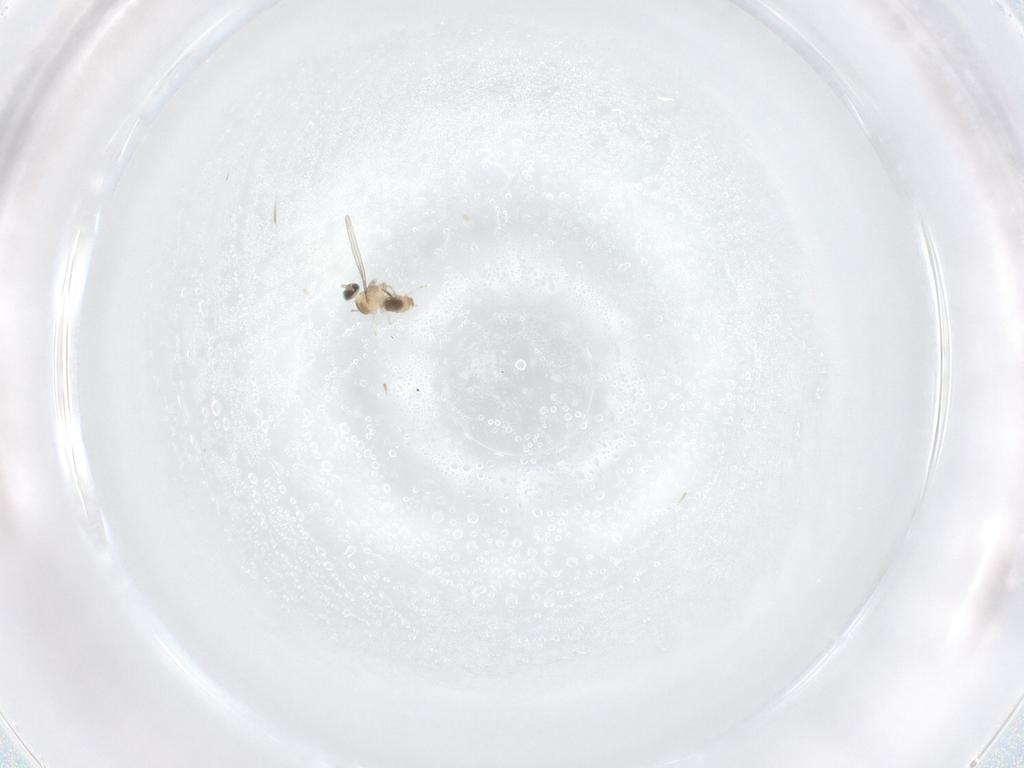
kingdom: Animalia
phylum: Arthropoda
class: Insecta
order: Diptera
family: Cecidomyiidae
